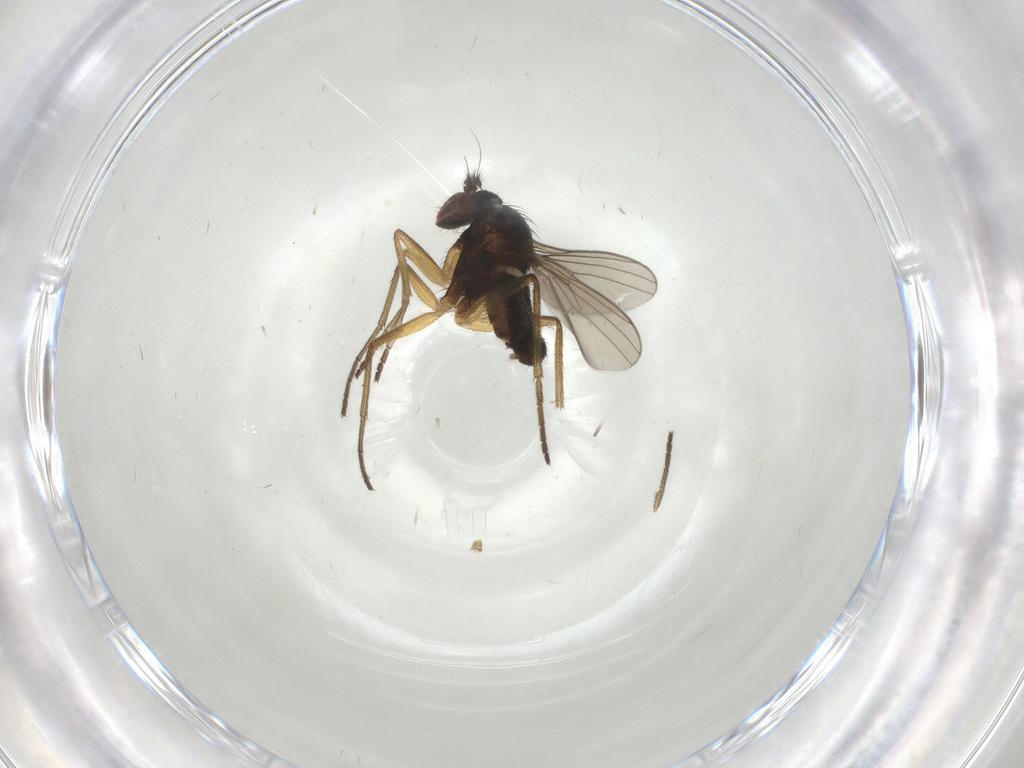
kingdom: Animalia
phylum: Arthropoda
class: Insecta
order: Diptera
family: Dolichopodidae
